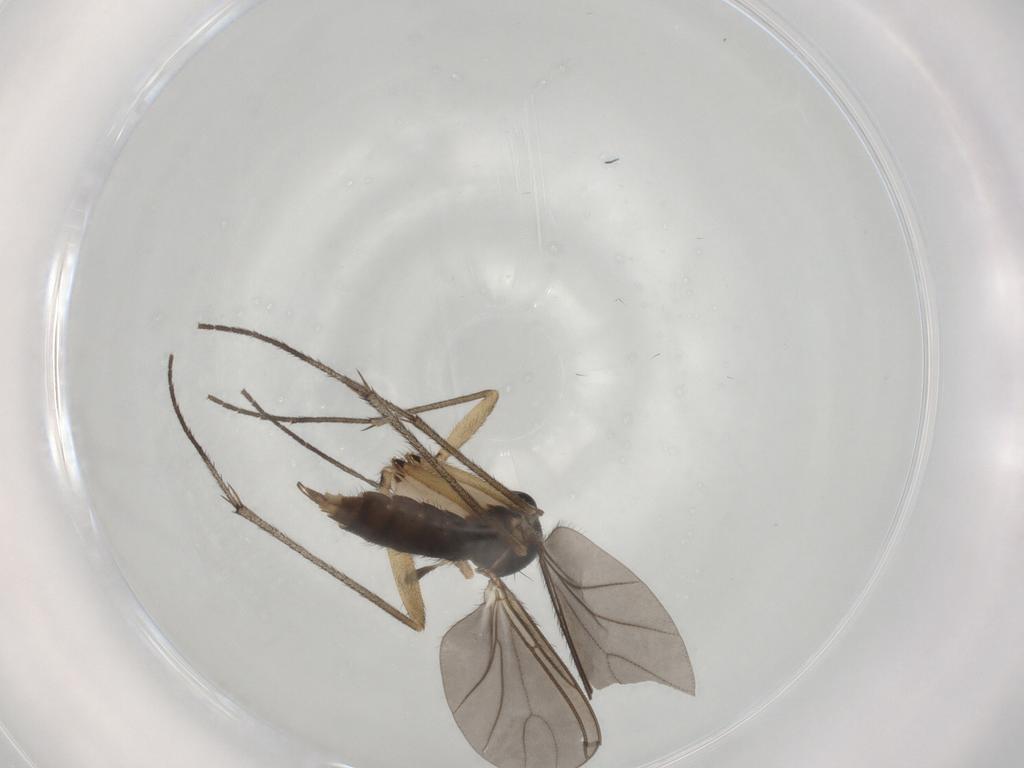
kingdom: Animalia
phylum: Arthropoda
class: Insecta
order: Diptera
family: Sciaridae
